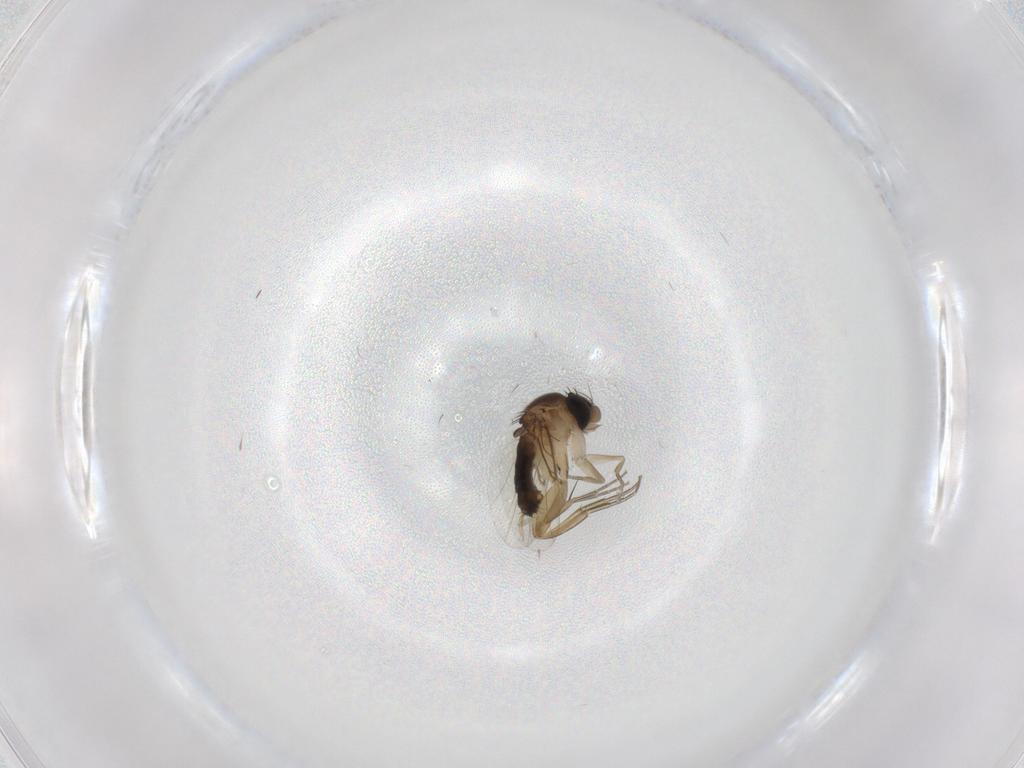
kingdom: Animalia
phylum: Arthropoda
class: Insecta
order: Diptera
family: Phoridae
